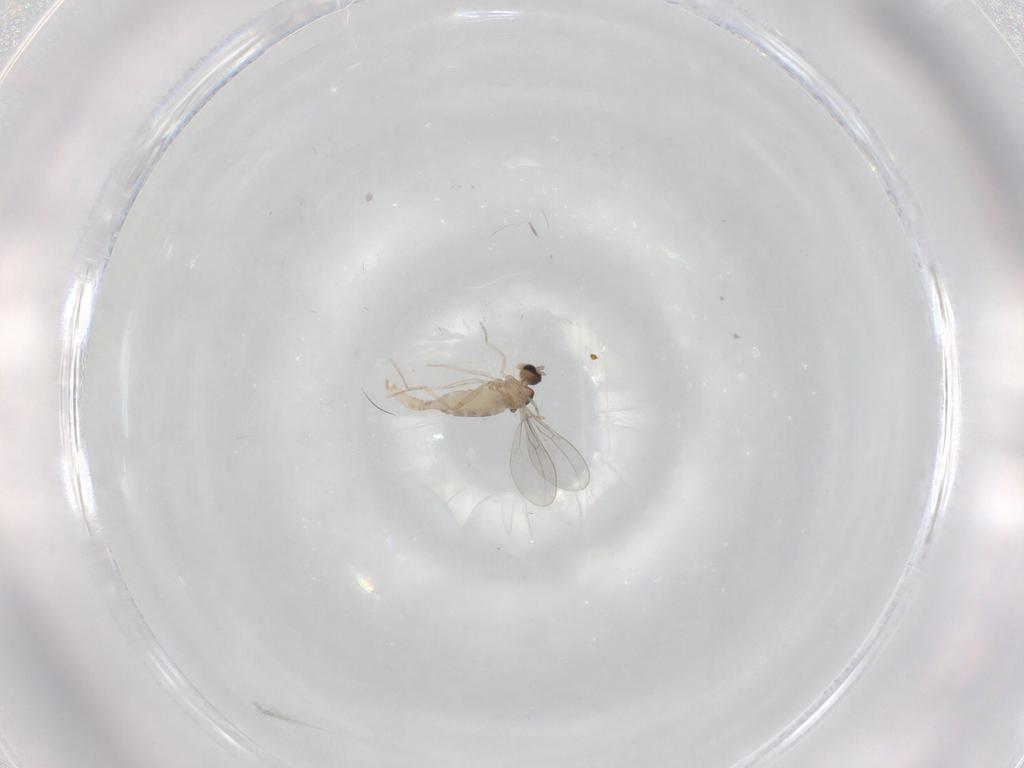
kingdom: Animalia
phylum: Arthropoda
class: Insecta
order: Diptera
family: Cecidomyiidae
